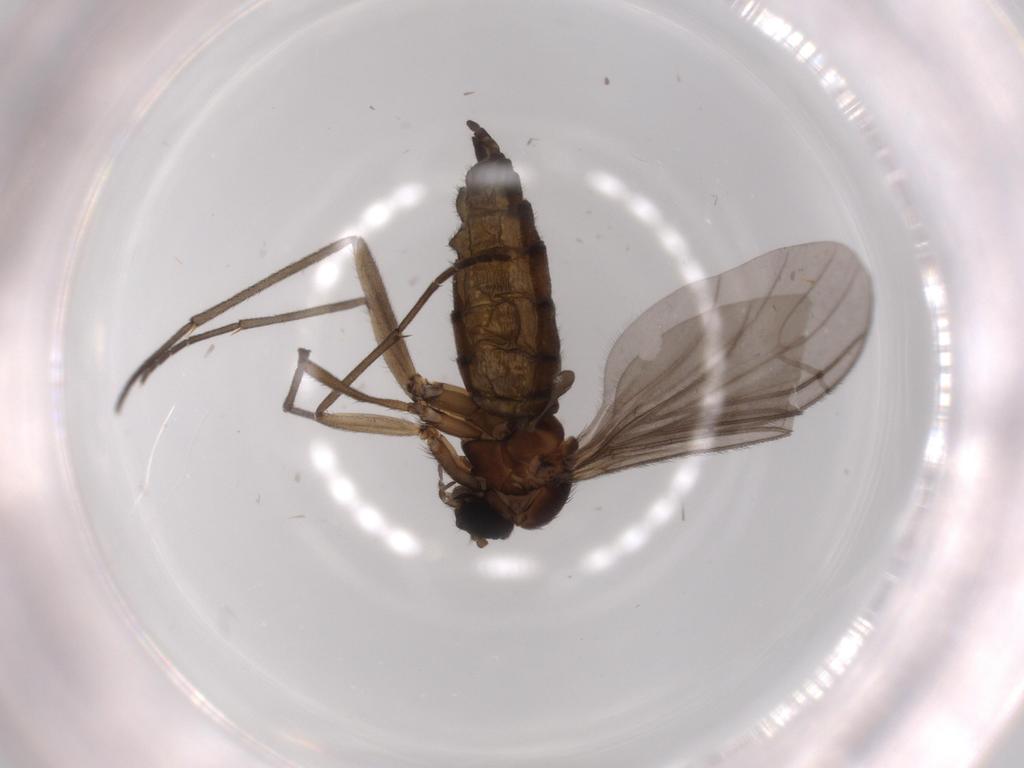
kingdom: Animalia
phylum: Arthropoda
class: Insecta
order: Diptera
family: Sciaridae
